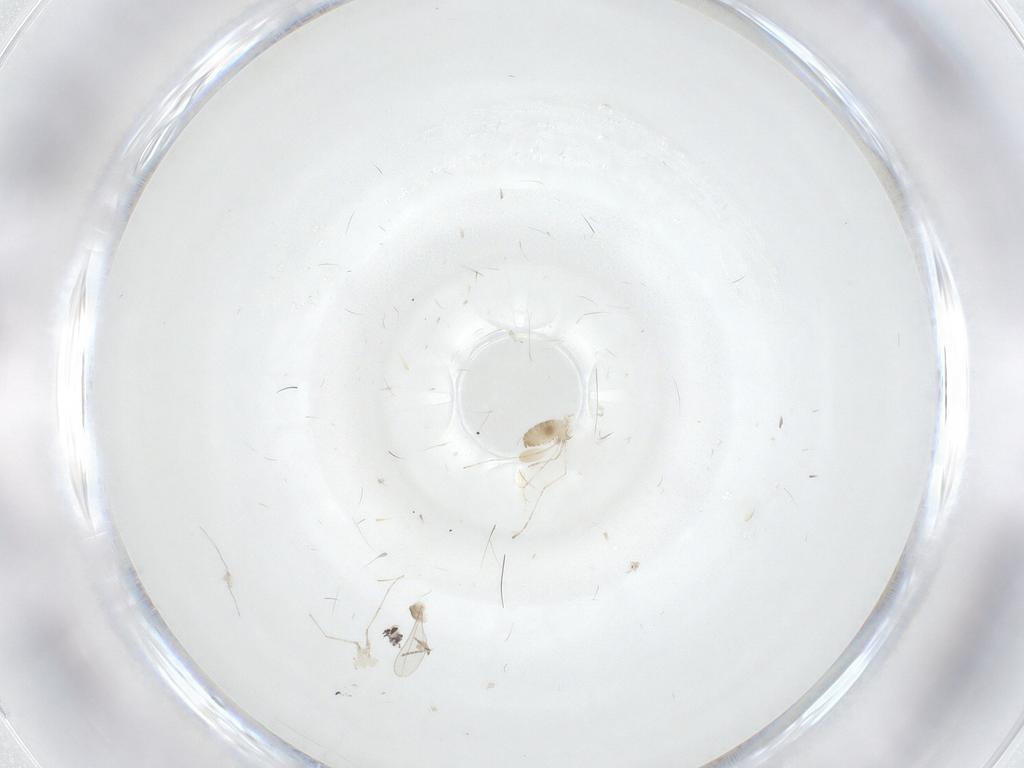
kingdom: Animalia
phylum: Arthropoda
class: Insecta
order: Diptera
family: Cecidomyiidae
